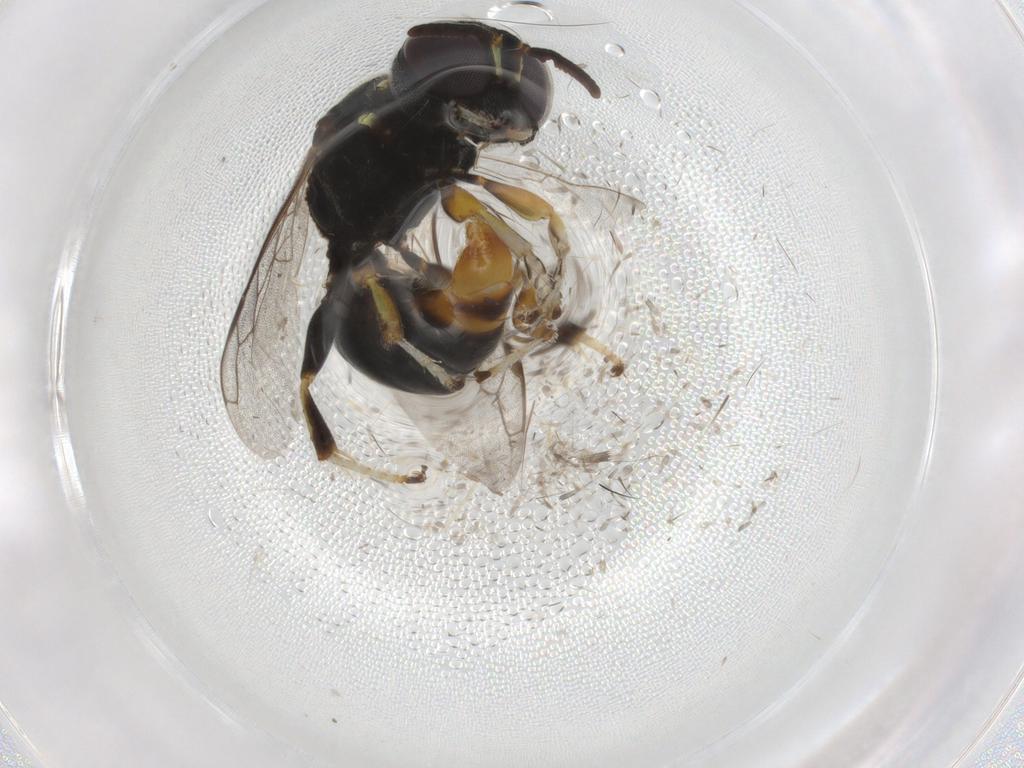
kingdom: Animalia
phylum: Arthropoda
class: Insecta
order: Hymenoptera
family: Crabronidae
